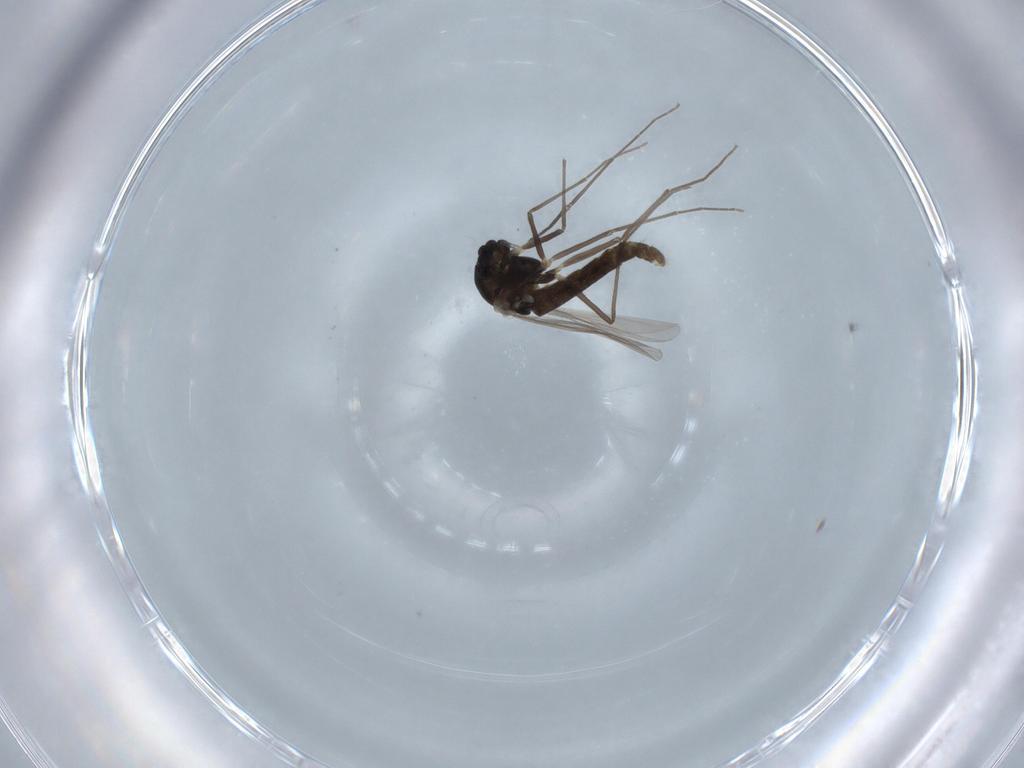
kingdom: Animalia
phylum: Arthropoda
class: Insecta
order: Diptera
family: Chironomidae
